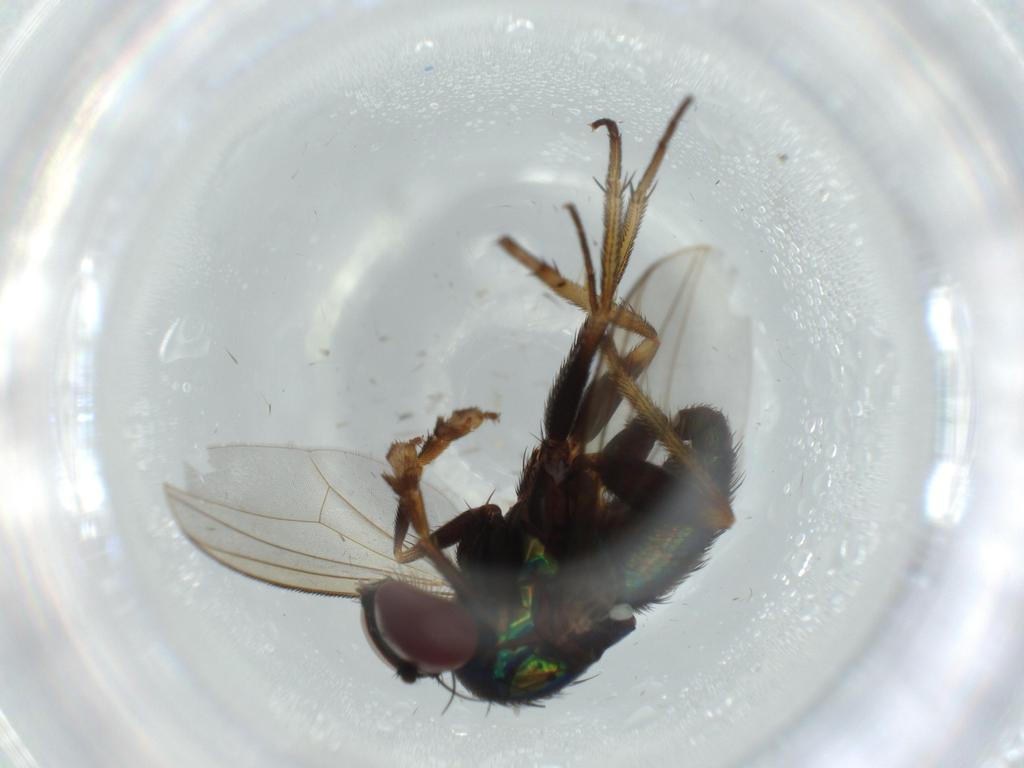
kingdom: Animalia
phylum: Arthropoda
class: Insecta
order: Diptera
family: Dolichopodidae
